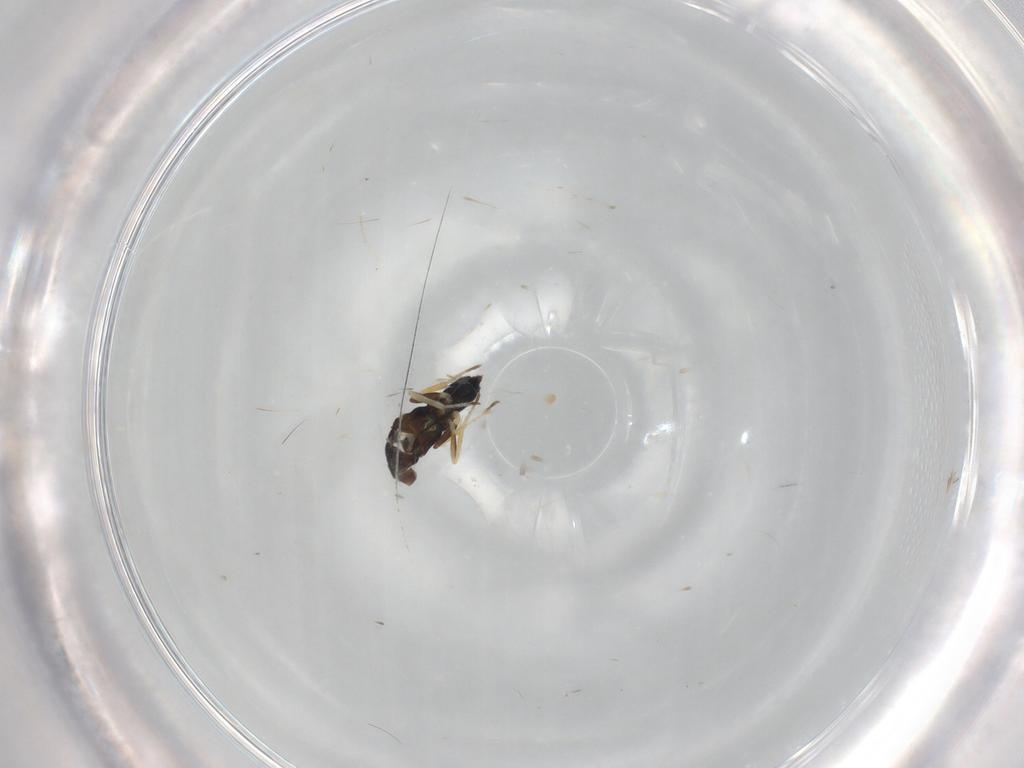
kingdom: Animalia
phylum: Arthropoda
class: Insecta
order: Hymenoptera
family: Eupelmidae
